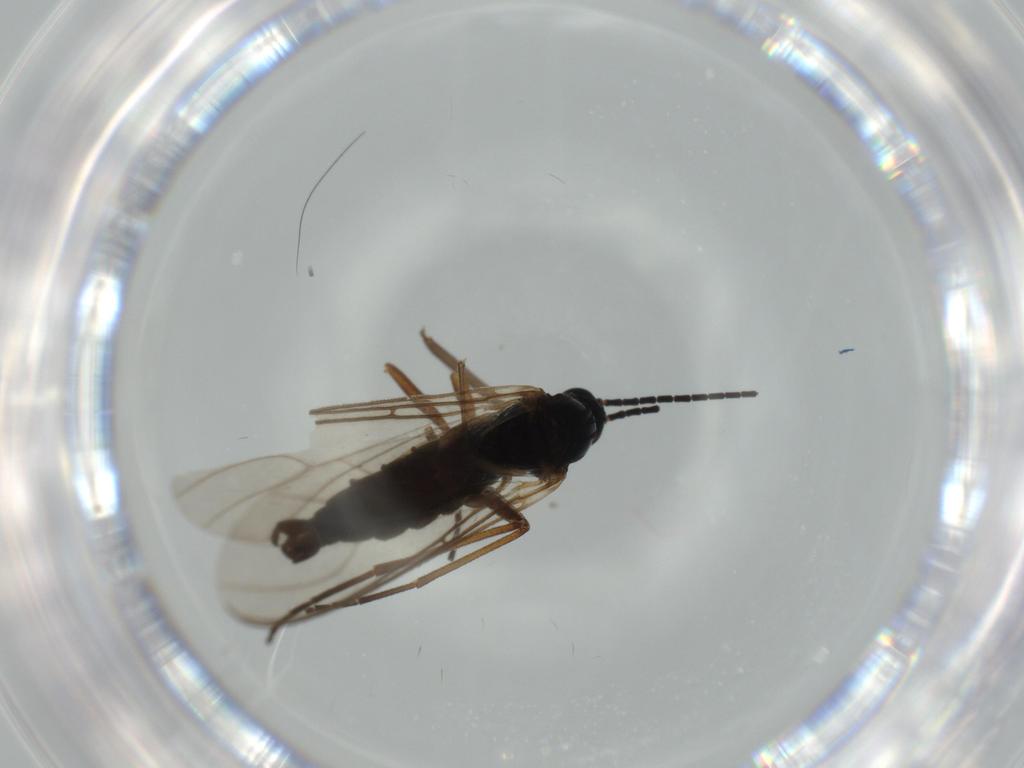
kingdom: Animalia
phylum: Arthropoda
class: Insecta
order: Diptera
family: Sciaridae
